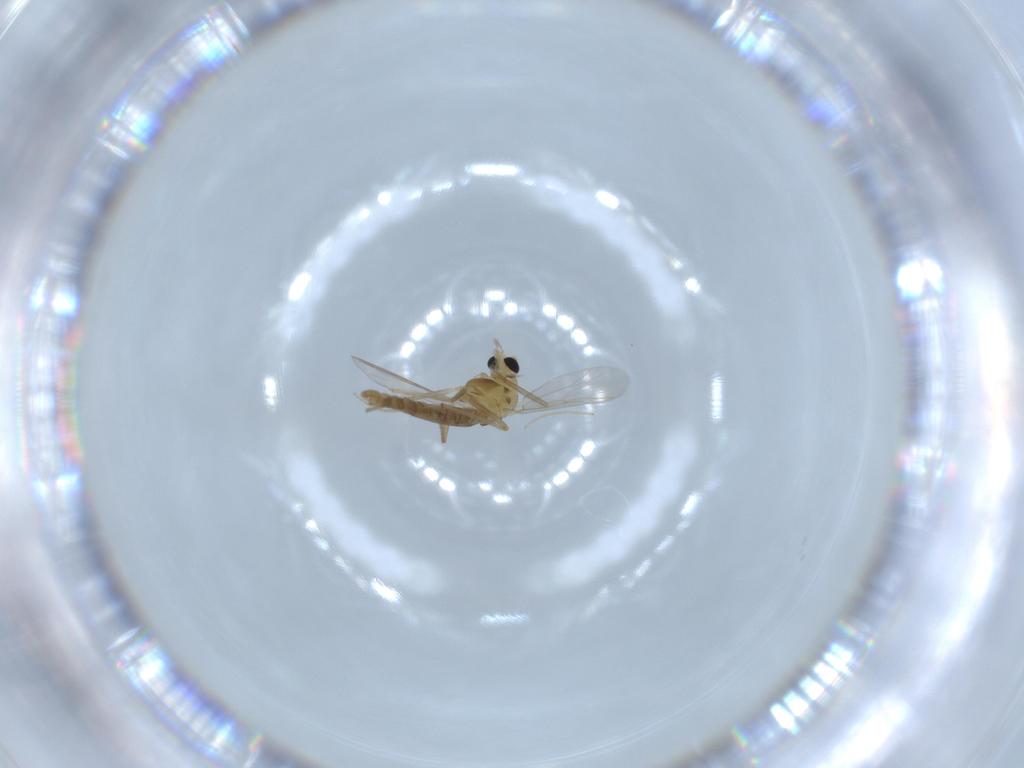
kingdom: Animalia
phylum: Arthropoda
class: Insecta
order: Diptera
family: Chironomidae
